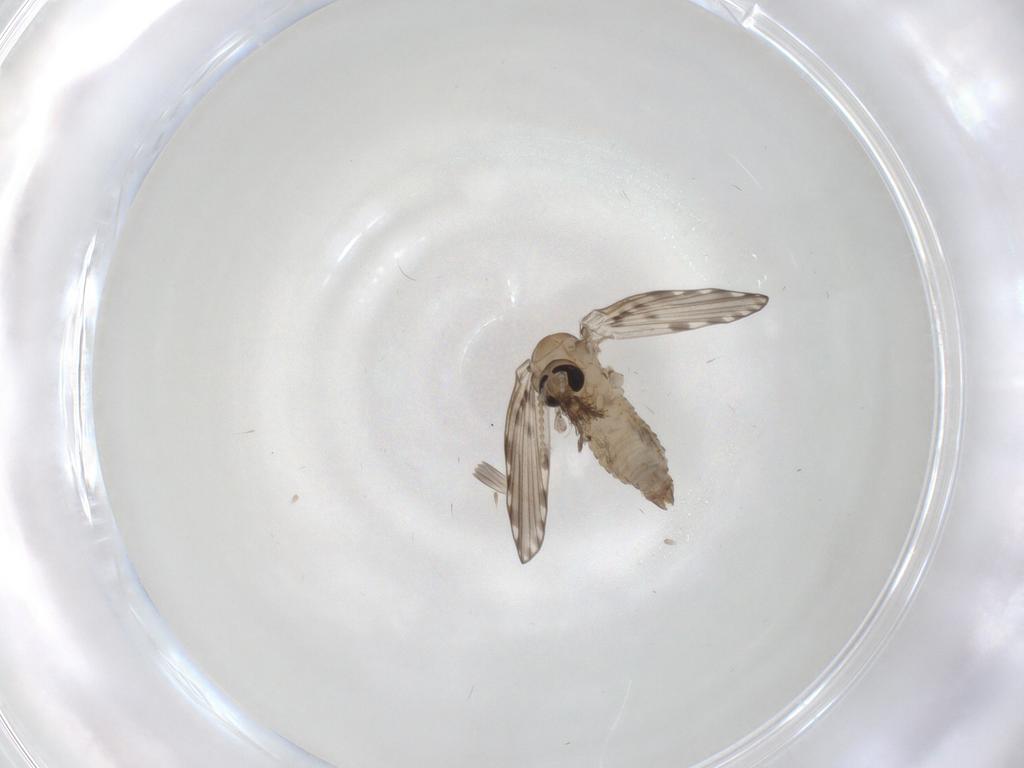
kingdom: Animalia
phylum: Arthropoda
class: Insecta
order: Diptera
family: Psychodidae
